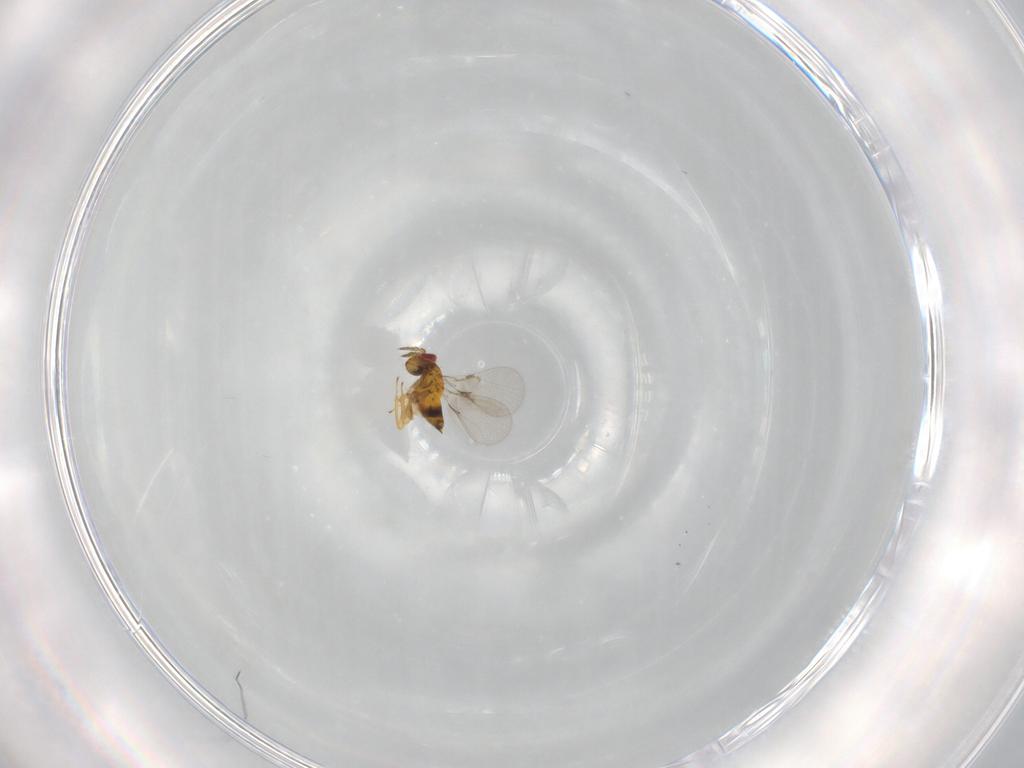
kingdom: Animalia
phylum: Arthropoda
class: Insecta
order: Hymenoptera
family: Trichogrammatidae
